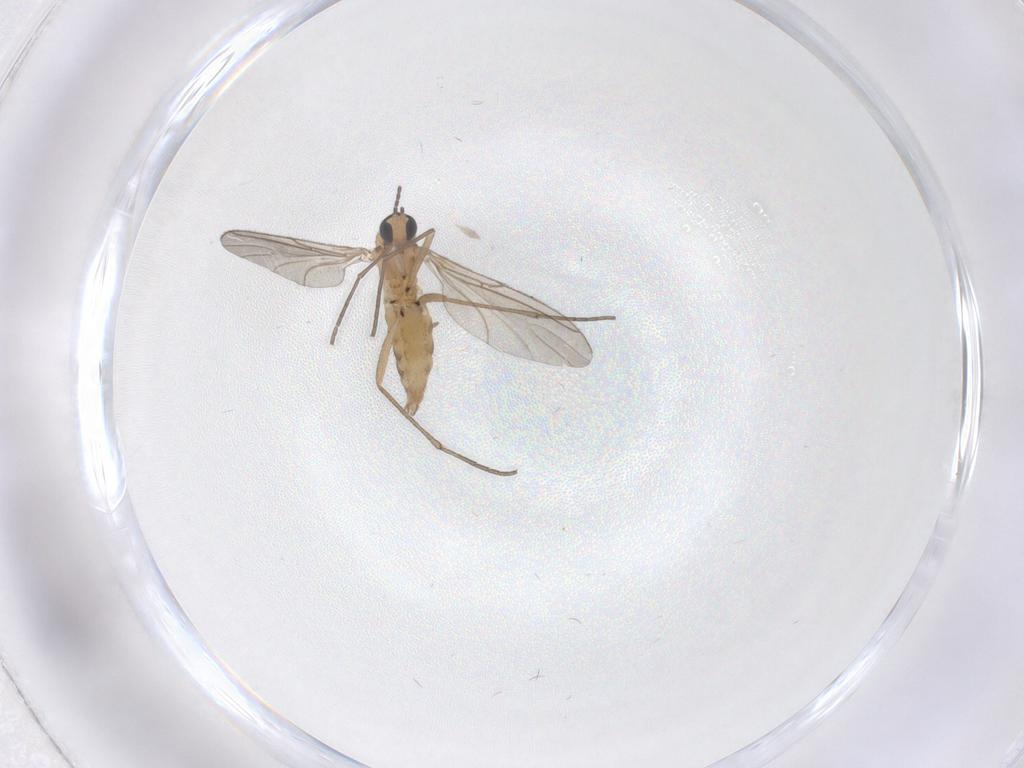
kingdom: Animalia
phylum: Arthropoda
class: Insecta
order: Diptera
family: Sciaridae
